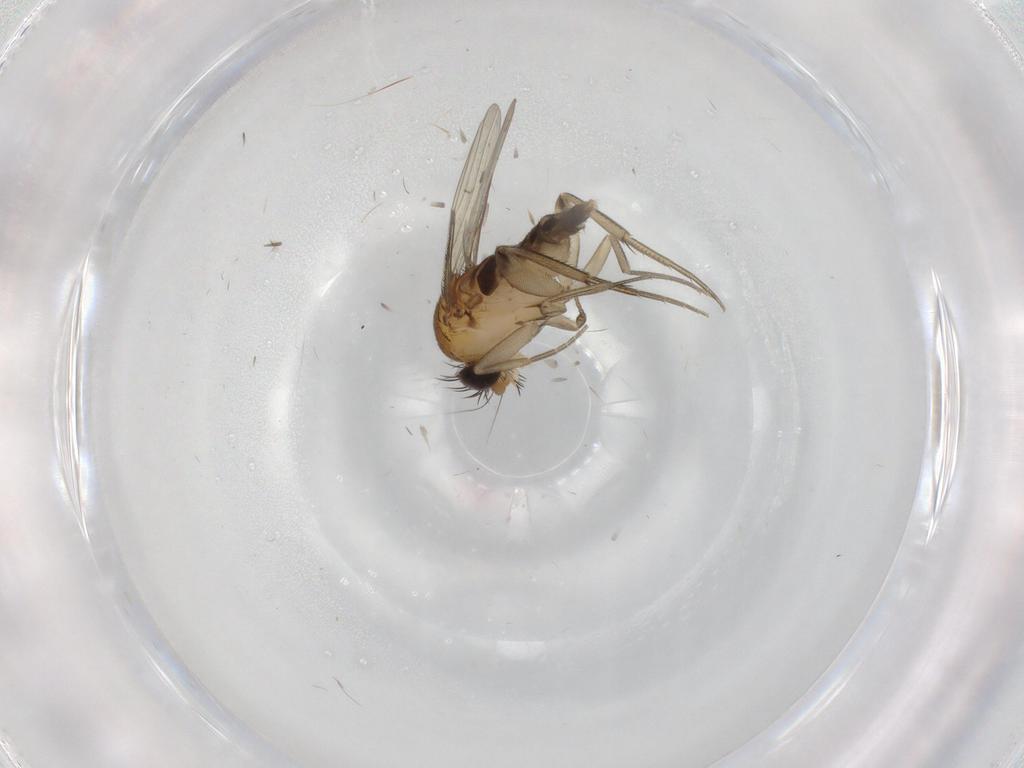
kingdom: Animalia
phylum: Arthropoda
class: Insecta
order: Diptera
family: Phoridae
